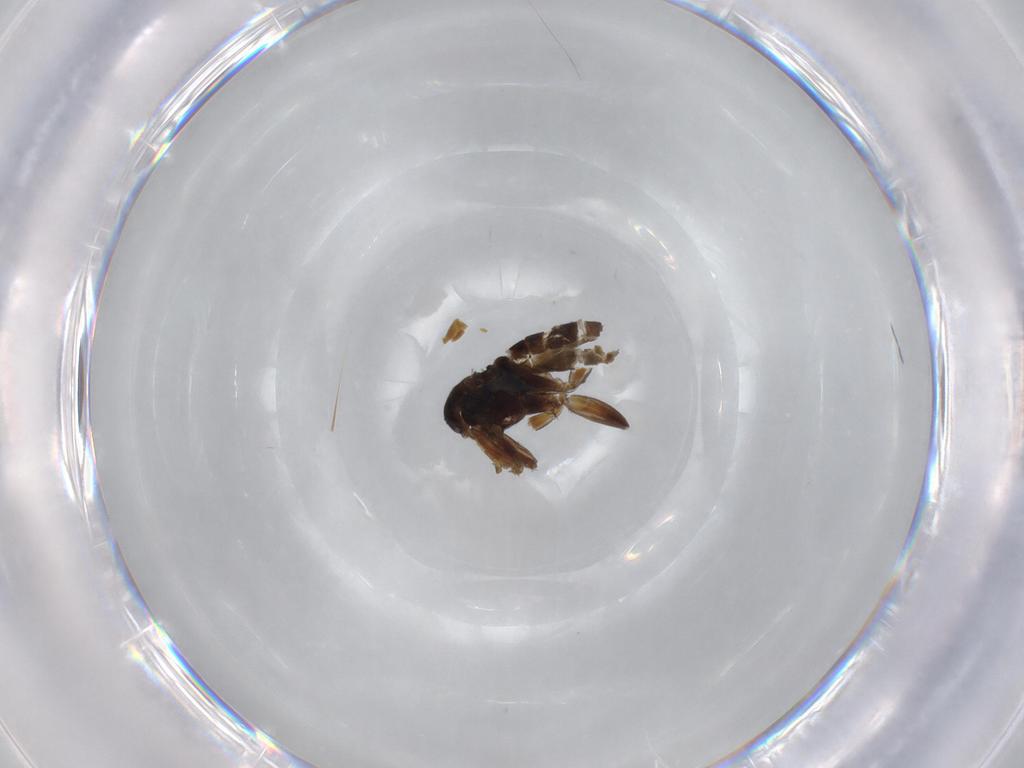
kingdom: Animalia
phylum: Arthropoda
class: Insecta
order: Diptera
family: Cecidomyiidae
